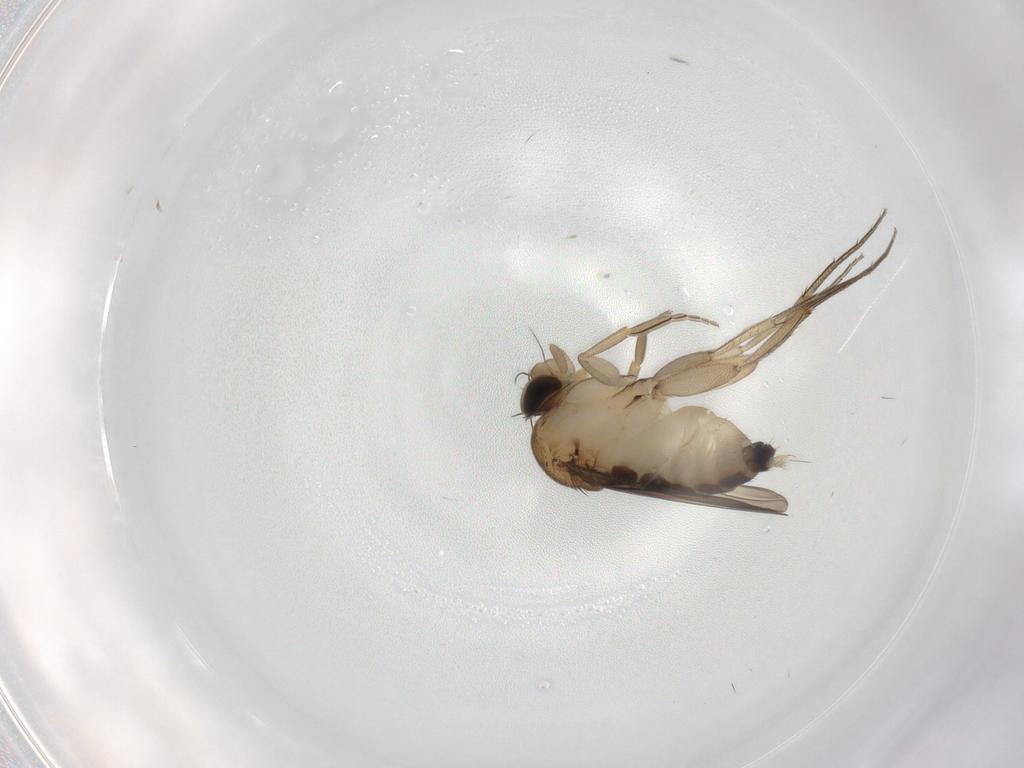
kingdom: Animalia
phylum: Arthropoda
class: Insecta
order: Diptera
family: Phoridae
